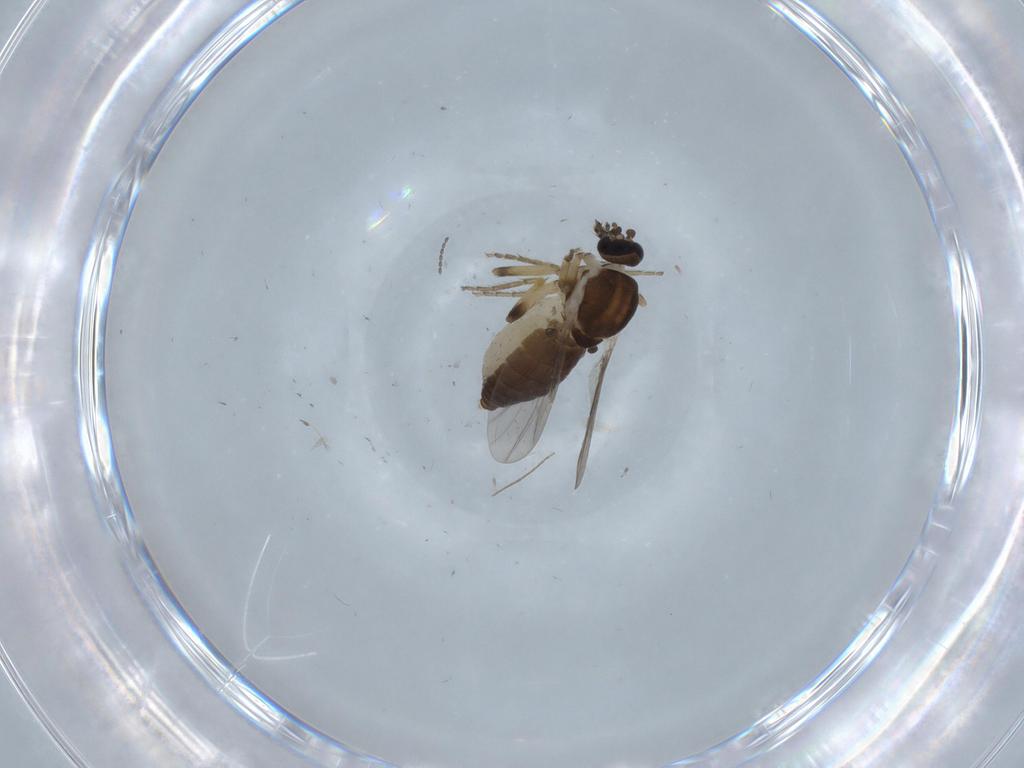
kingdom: Animalia
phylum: Arthropoda
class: Insecta
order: Diptera
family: Ceratopogonidae
